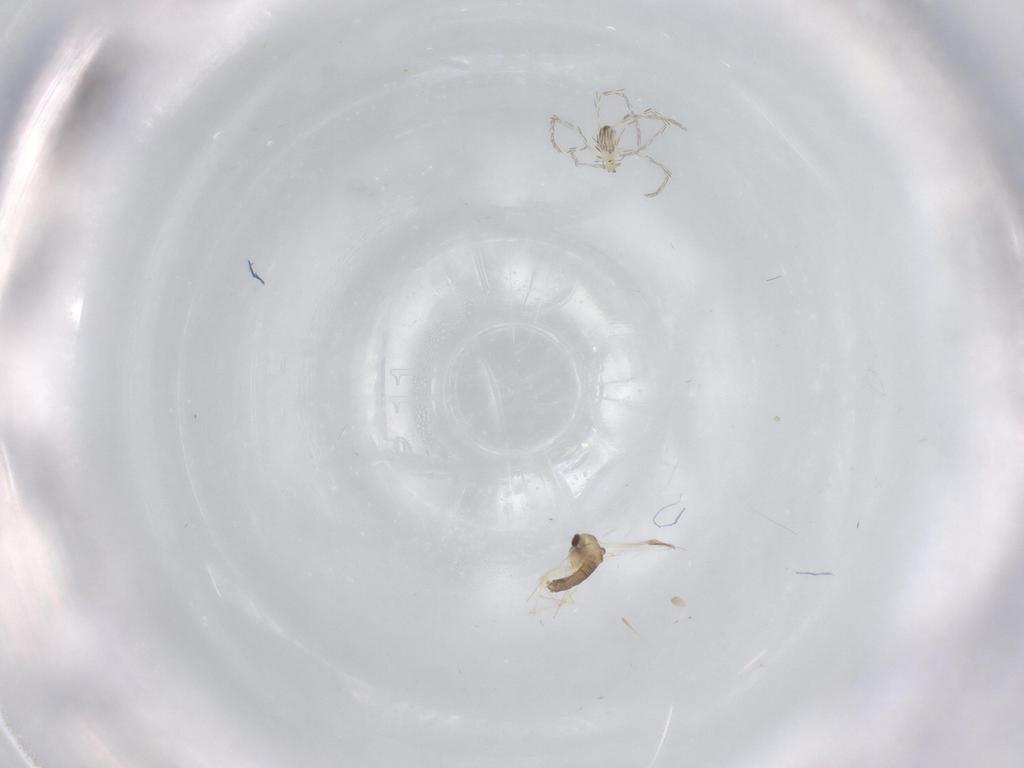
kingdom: Animalia
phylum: Arthropoda
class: Insecta
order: Diptera
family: Chironomidae
